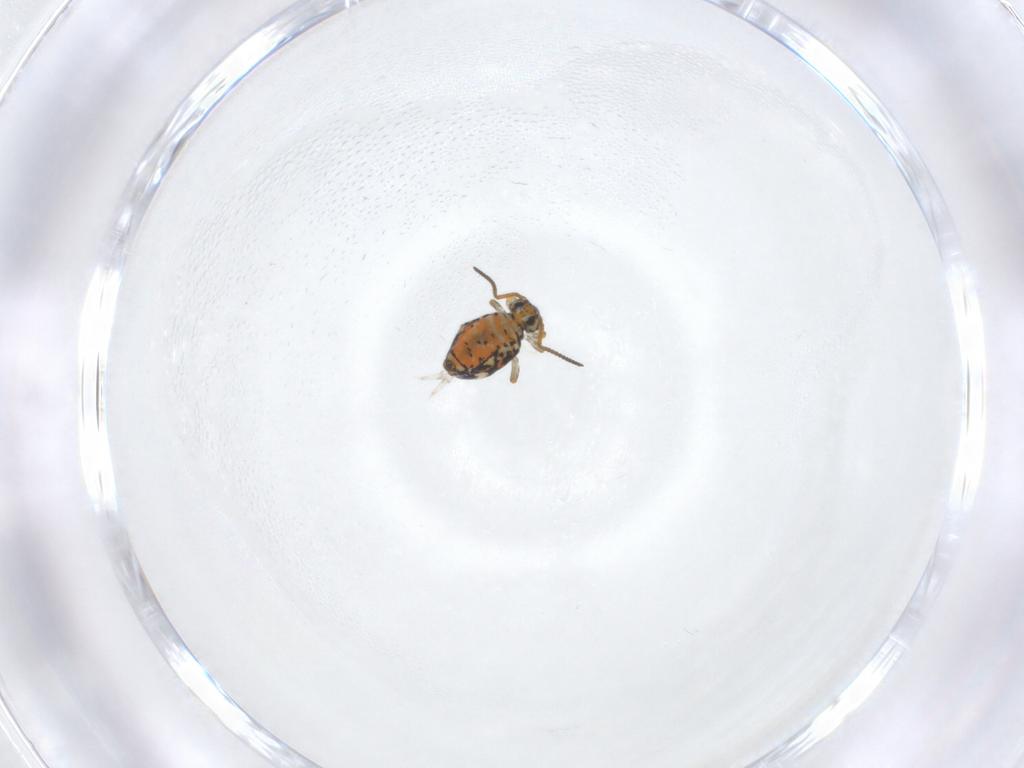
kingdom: Animalia
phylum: Arthropoda
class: Collembola
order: Symphypleona
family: Katiannidae
